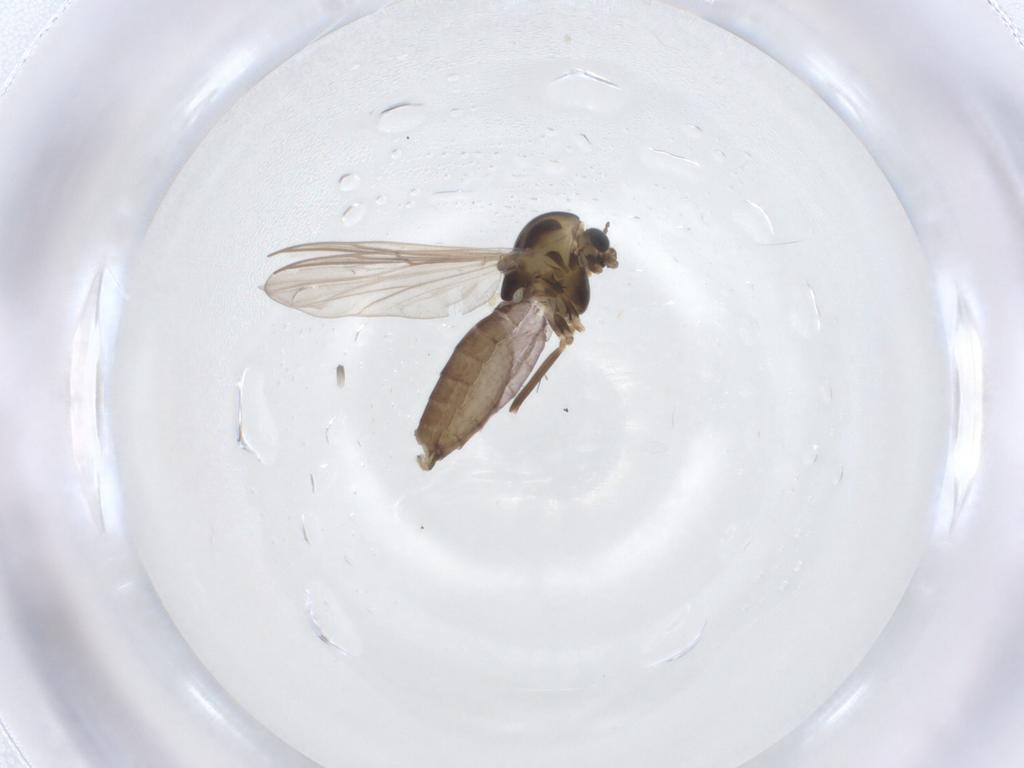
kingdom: Animalia
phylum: Arthropoda
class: Insecta
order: Diptera
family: Chironomidae
